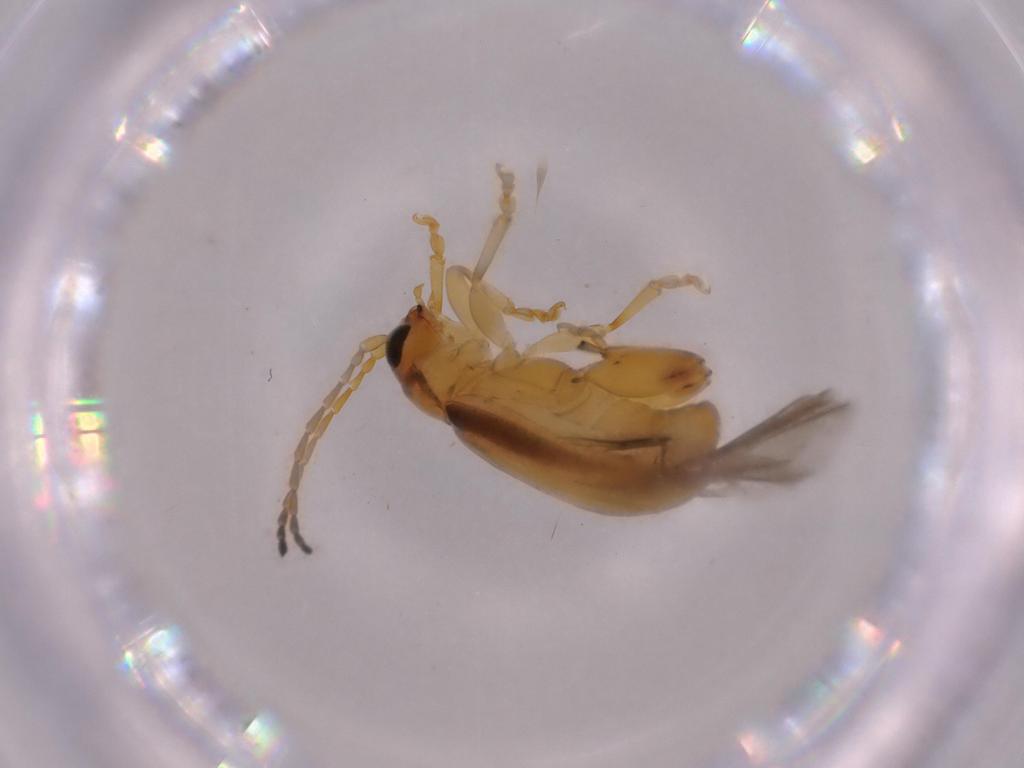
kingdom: Animalia
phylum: Arthropoda
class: Insecta
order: Coleoptera
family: Chrysomelidae
